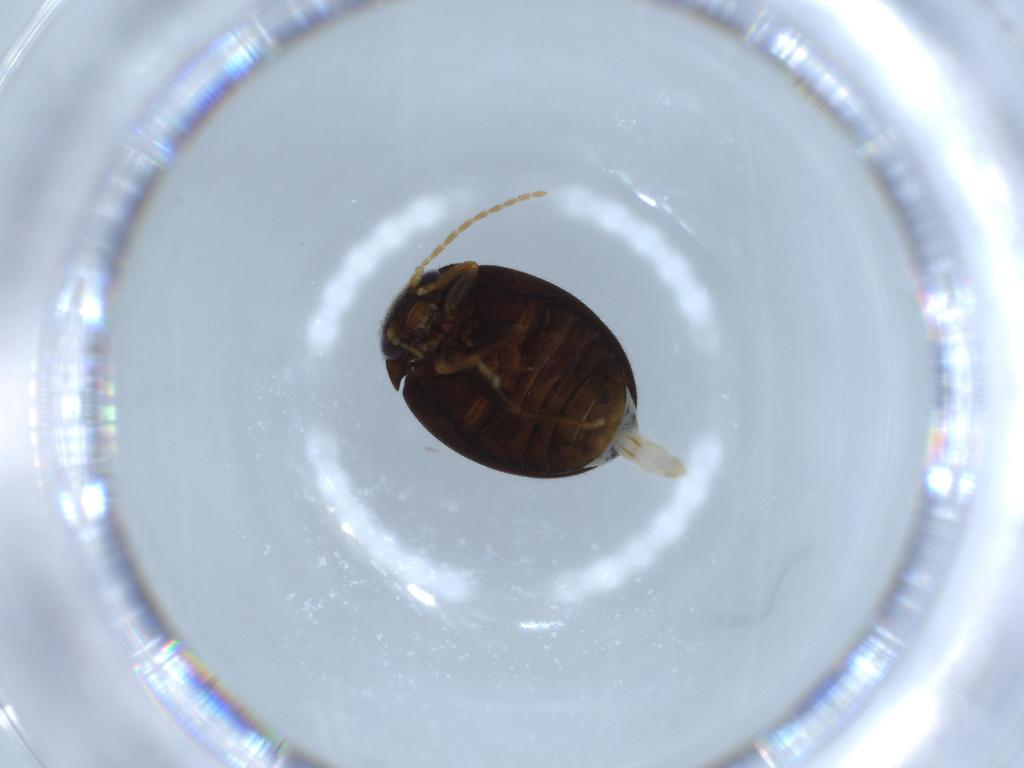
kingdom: Animalia
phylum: Arthropoda
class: Insecta
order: Coleoptera
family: Scirtidae
